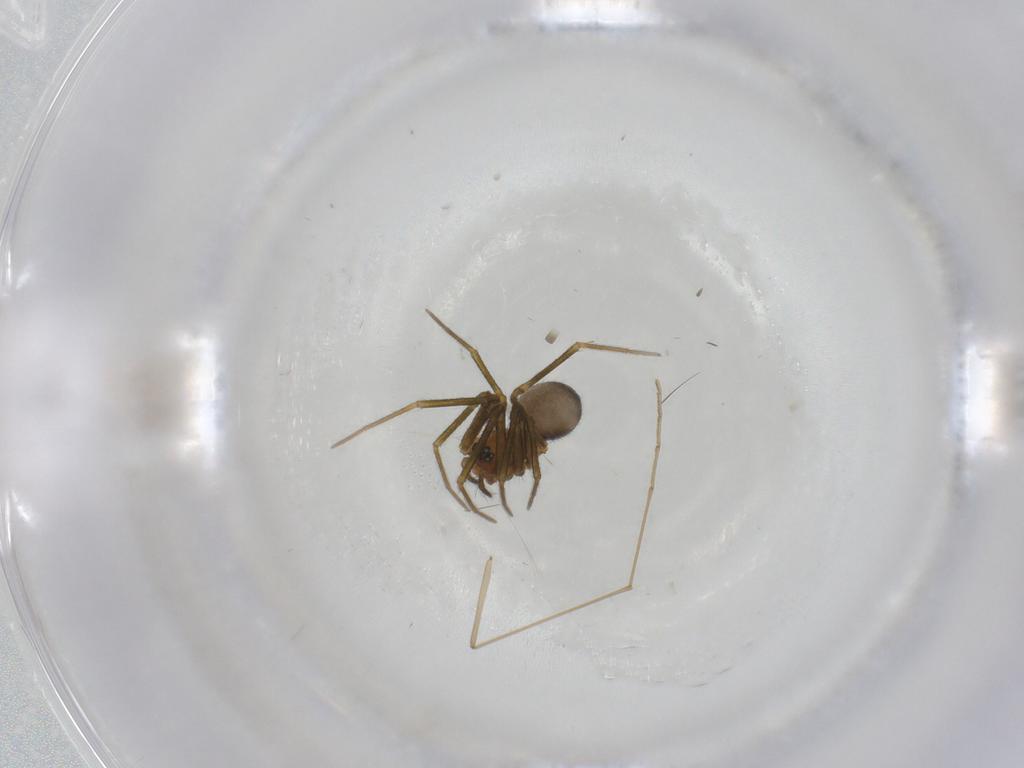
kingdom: Animalia
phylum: Arthropoda
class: Arachnida
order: Araneae
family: Linyphiidae
